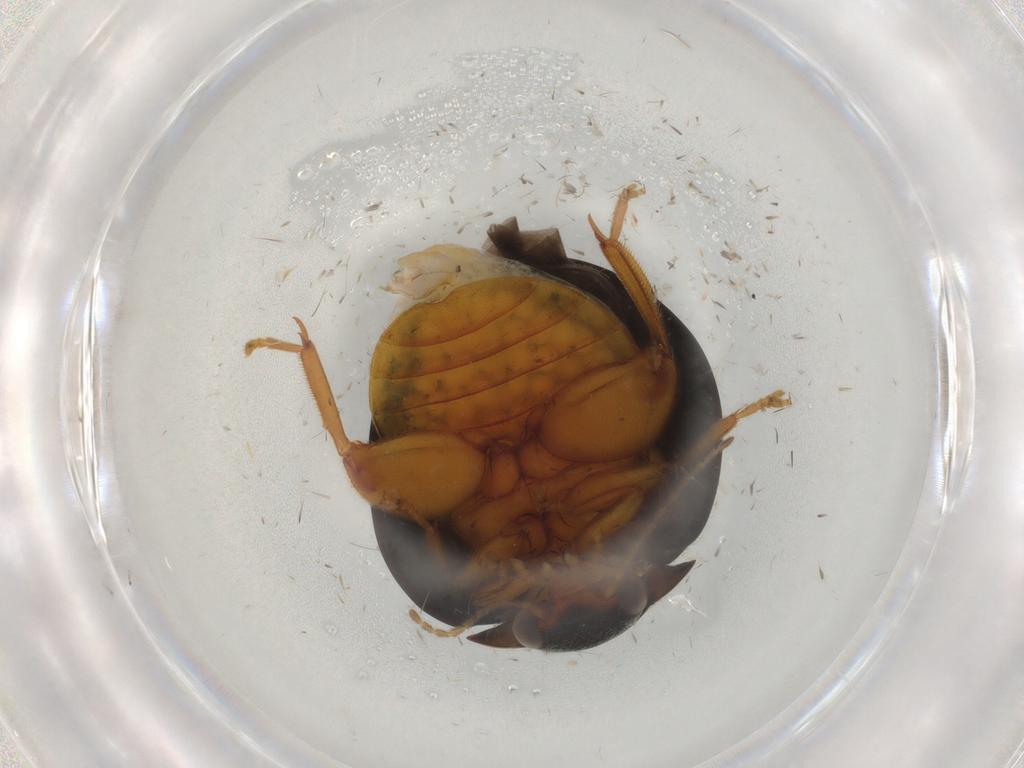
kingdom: Animalia
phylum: Arthropoda
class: Insecta
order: Coleoptera
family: Scirtidae
